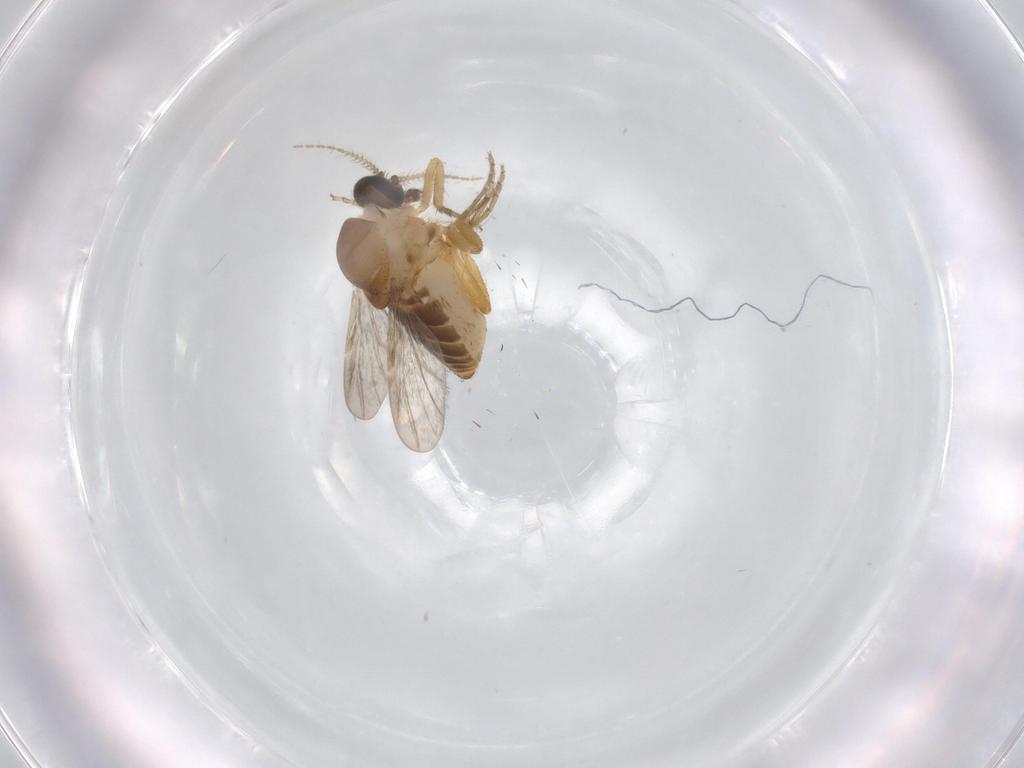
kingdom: Animalia
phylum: Arthropoda
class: Insecta
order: Diptera
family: Ceratopogonidae
